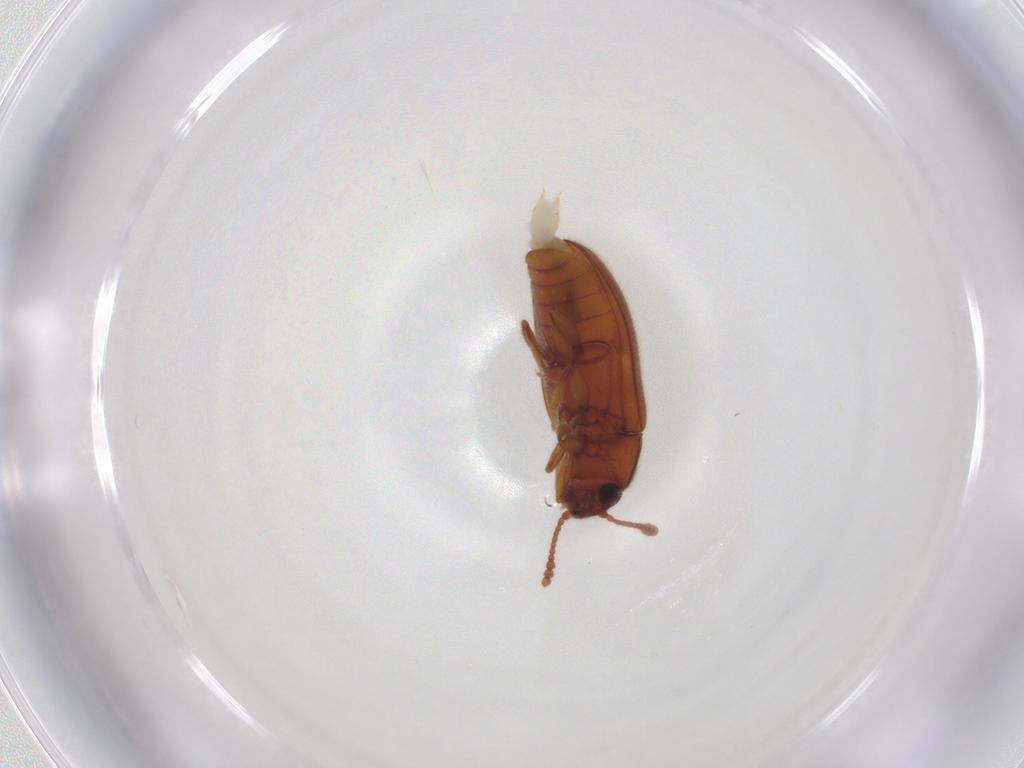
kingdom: Animalia
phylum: Arthropoda
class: Insecta
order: Coleoptera
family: Erotylidae
